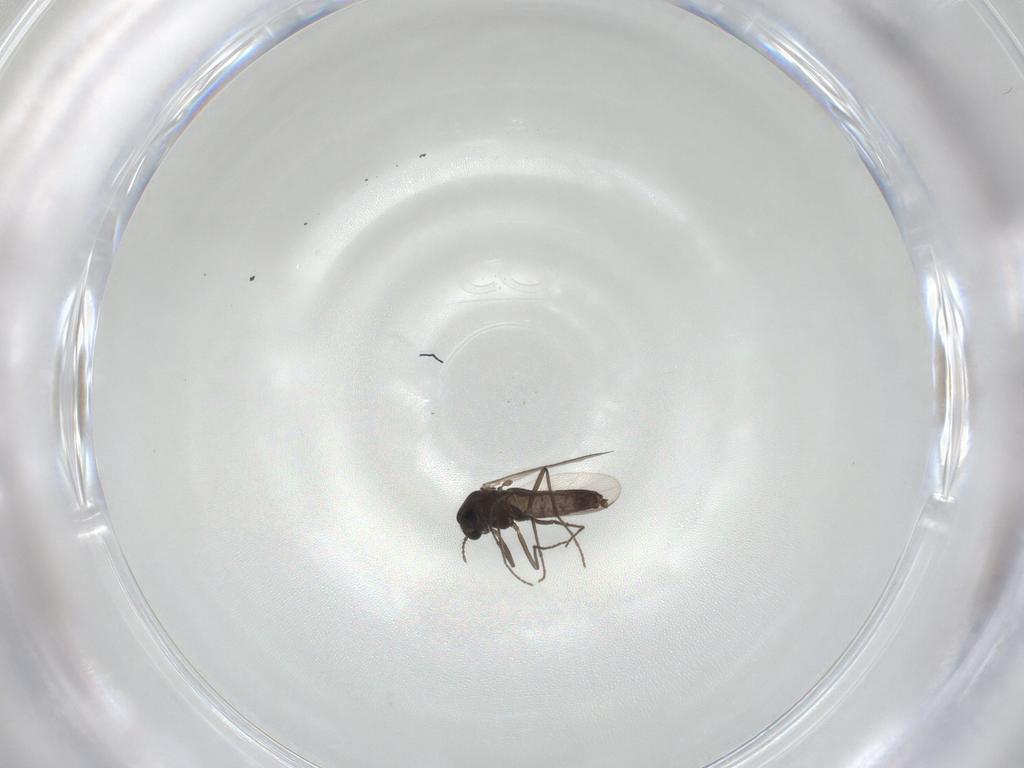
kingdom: Animalia
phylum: Arthropoda
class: Insecta
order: Diptera
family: Chironomidae
